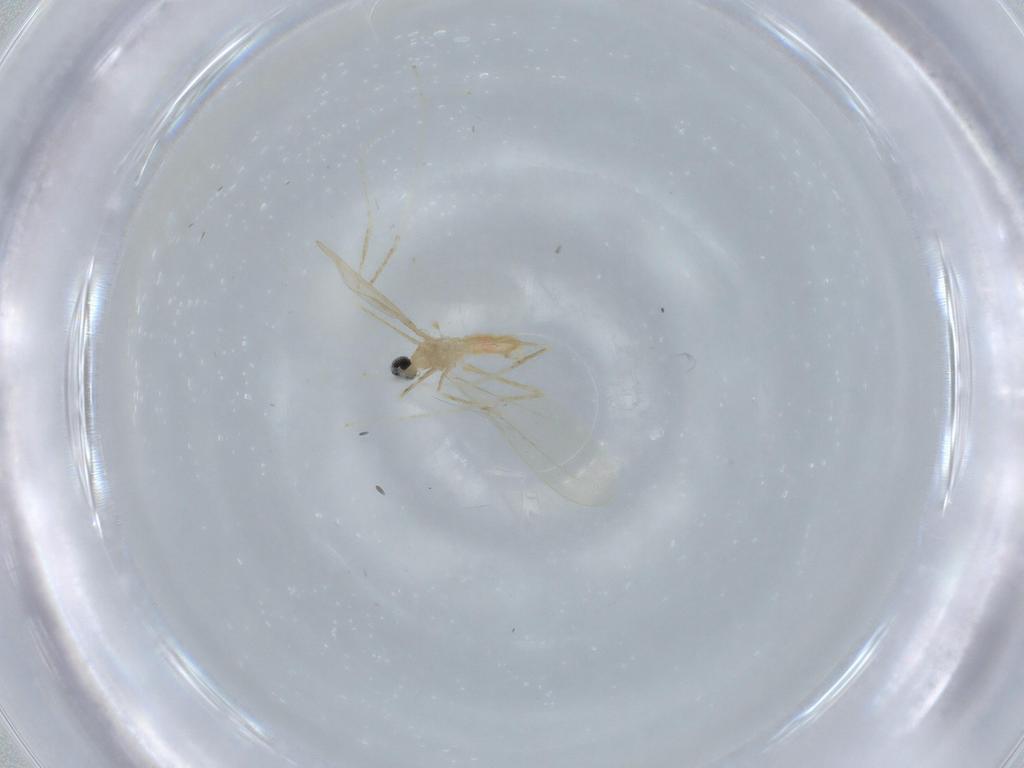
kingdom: Animalia
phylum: Arthropoda
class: Insecta
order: Diptera
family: Cecidomyiidae
